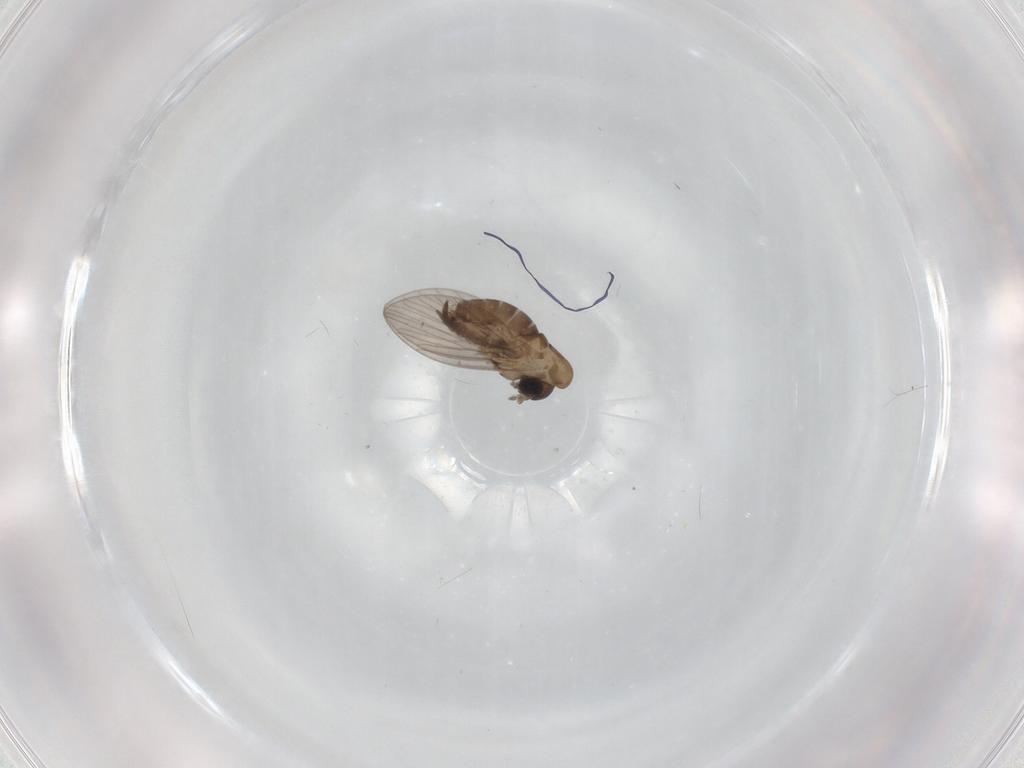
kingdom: Animalia
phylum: Arthropoda
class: Insecta
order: Diptera
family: Psychodidae
